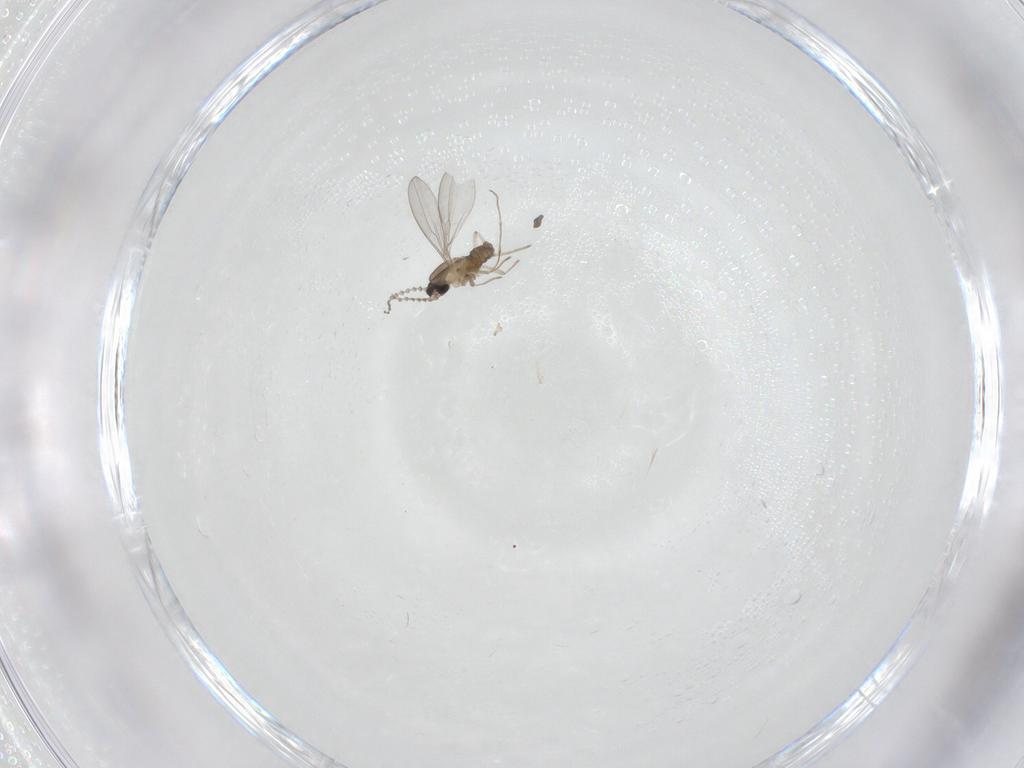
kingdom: Animalia
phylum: Arthropoda
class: Insecta
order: Diptera
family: Cecidomyiidae
